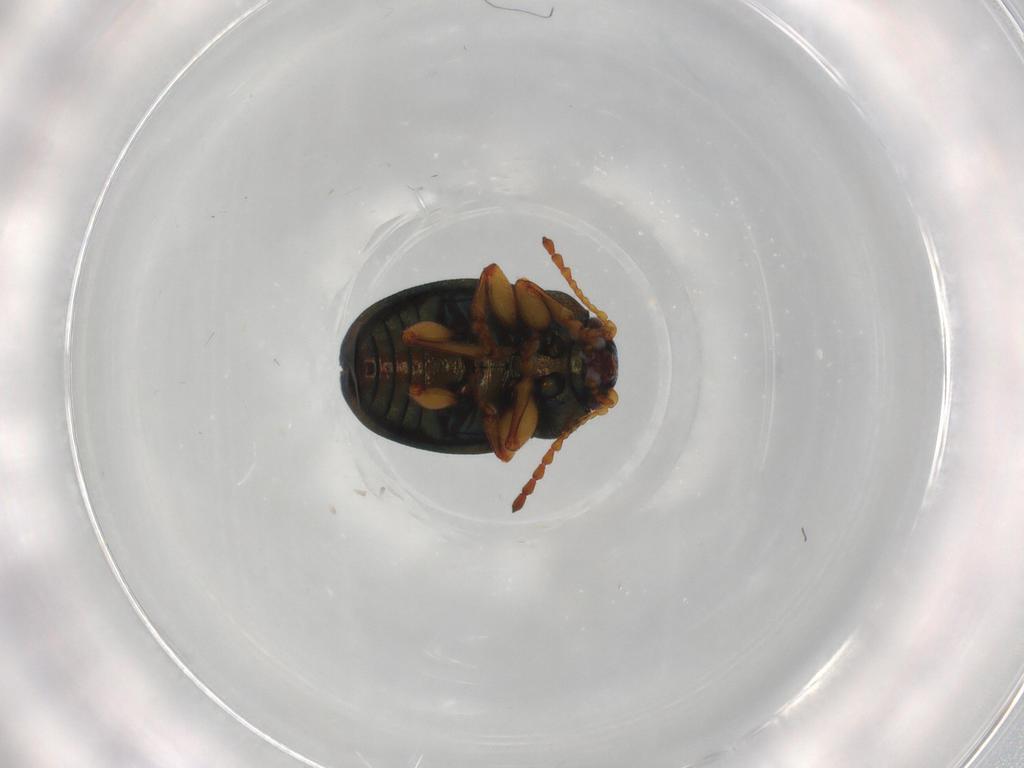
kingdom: Animalia
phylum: Arthropoda
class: Insecta
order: Coleoptera
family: Chrysomelidae
